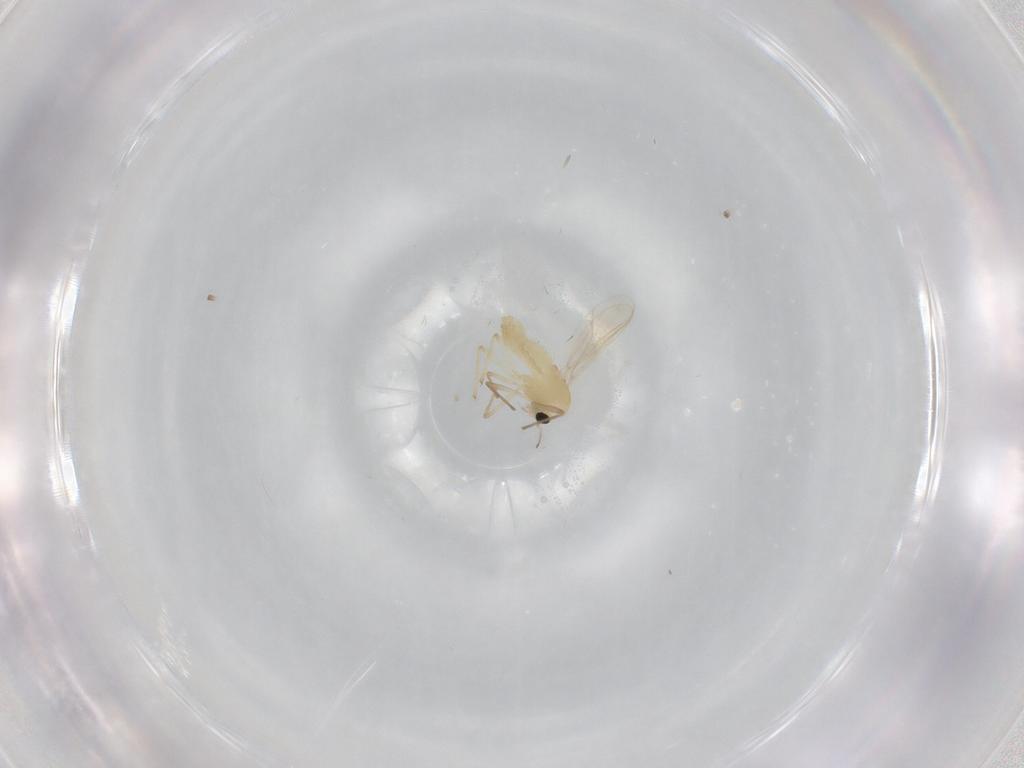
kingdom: Animalia
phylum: Arthropoda
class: Insecta
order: Diptera
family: Chironomidae
